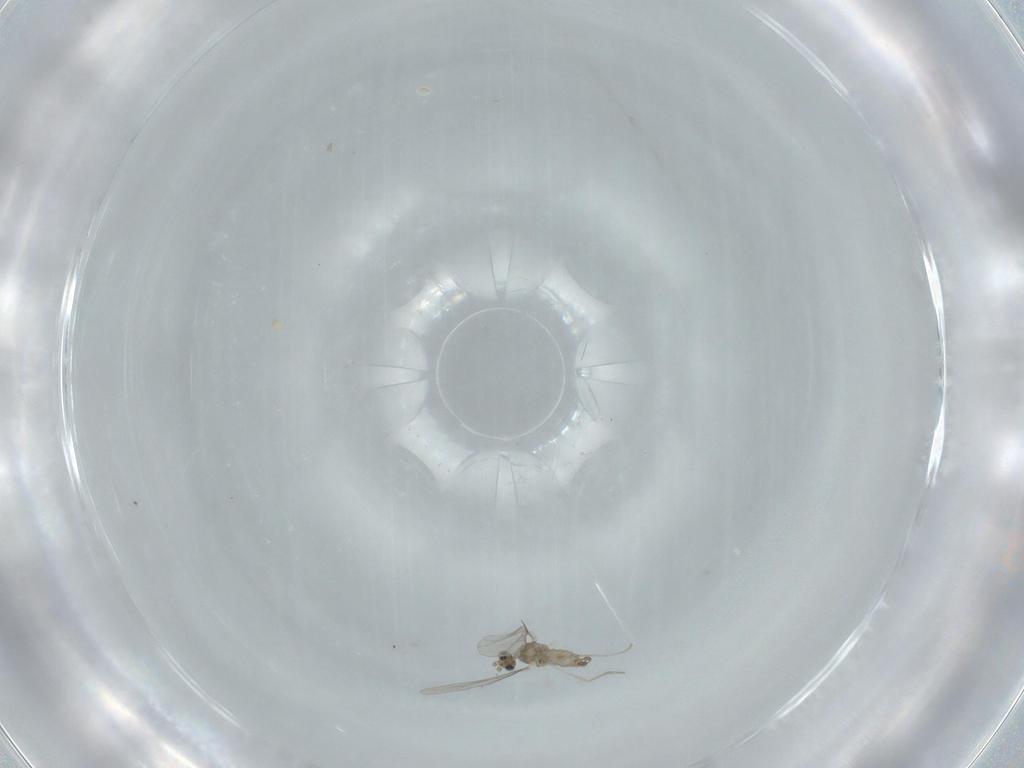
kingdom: Animalia
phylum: Arthropoda
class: Insecta
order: Diptera
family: Cecidomyiidae
